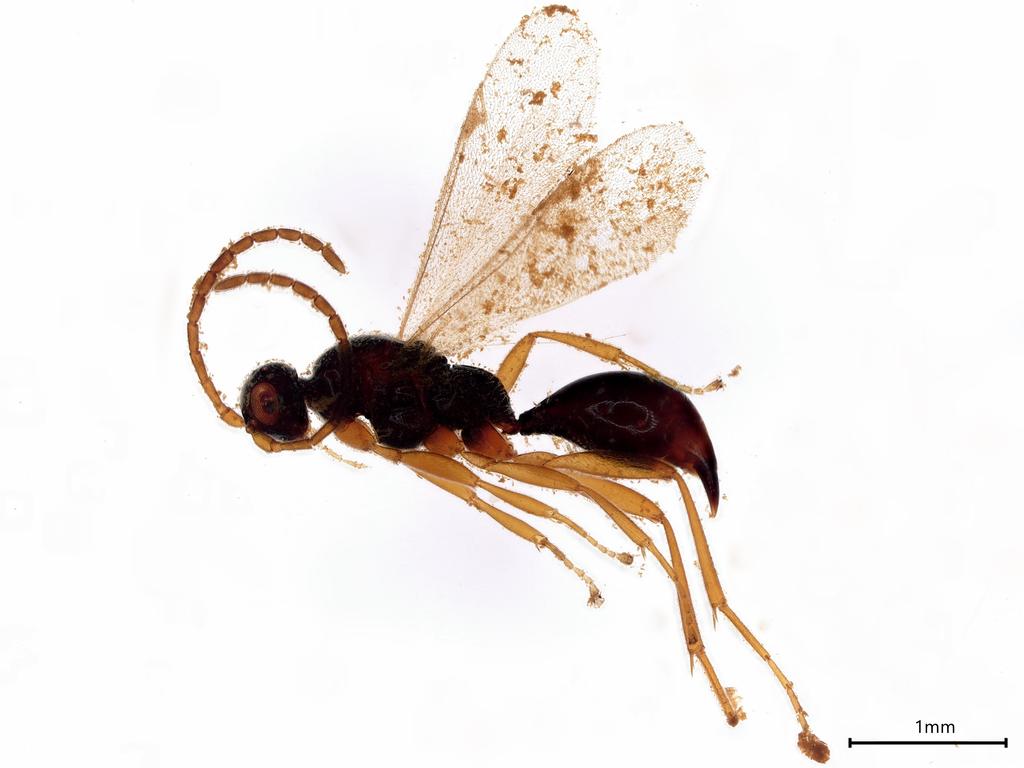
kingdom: Animalia
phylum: Arthropoda
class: Insecta
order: Hymenoptera
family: Proctotrupidae
